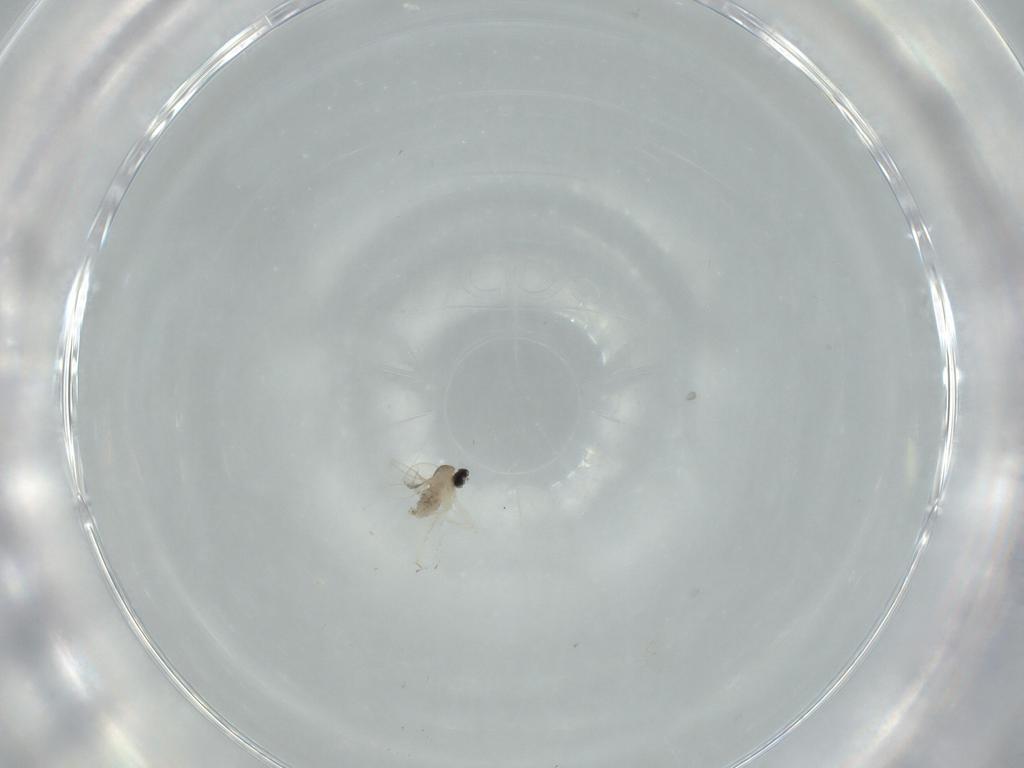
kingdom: Animalia
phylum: Arthropoda
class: Insecta
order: Diptera
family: Cecidomyiidae
